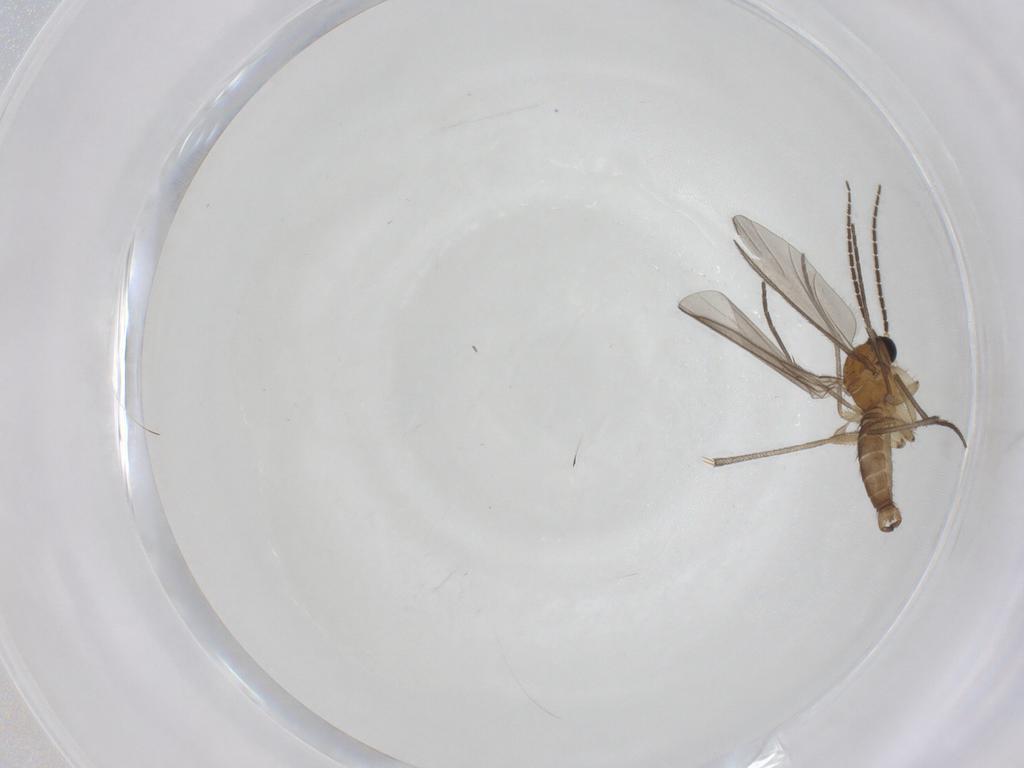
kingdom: Animalia
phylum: Arthropoda
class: Insecta
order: Diptera
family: Sciaridae
